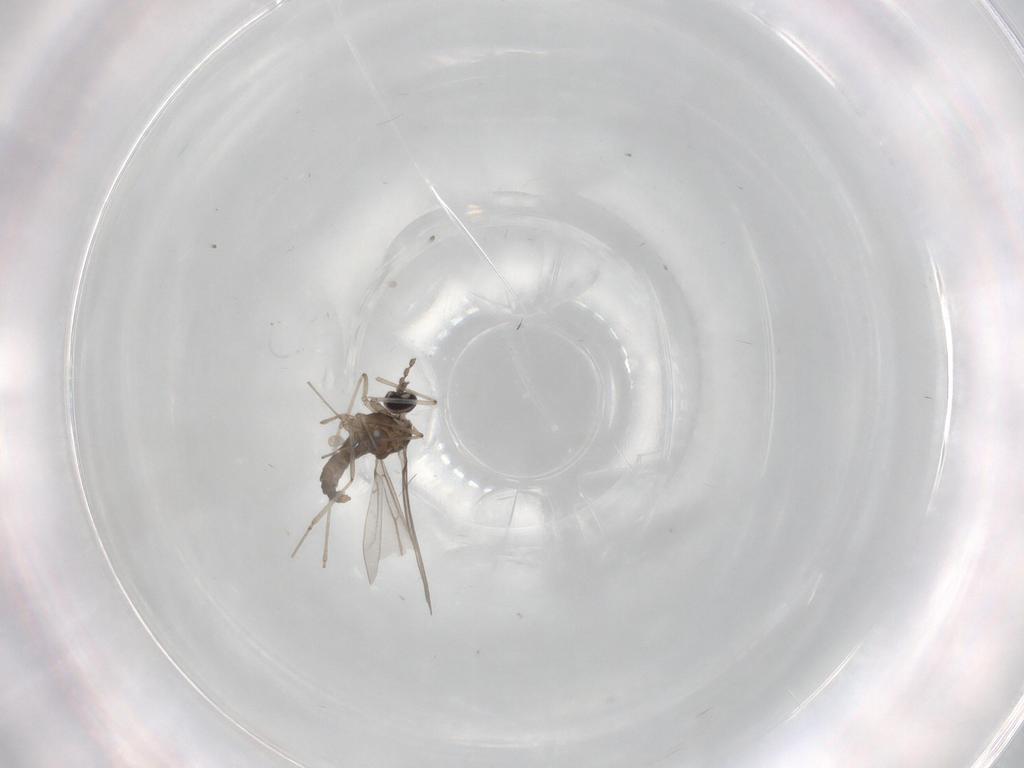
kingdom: Animalia
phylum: Arthropoda
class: Insecta
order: Diptera
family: Cecidomyiidae
